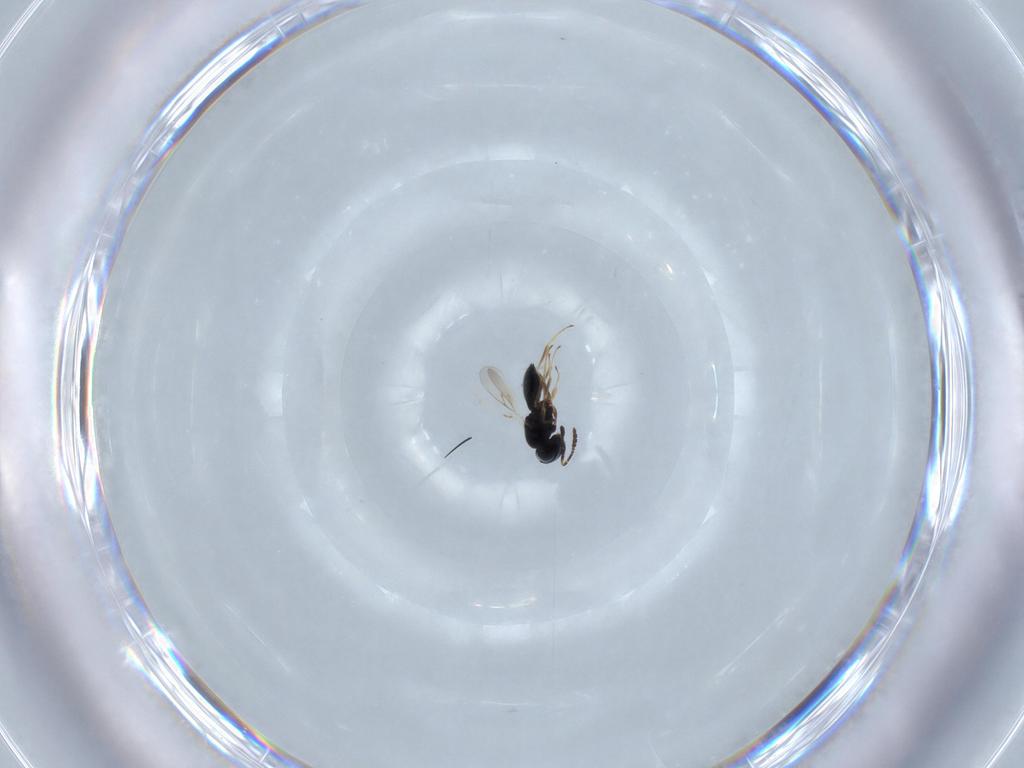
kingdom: Animalia
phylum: Arthropoda
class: Insecta
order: Hymenoptera
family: Scelionidae
